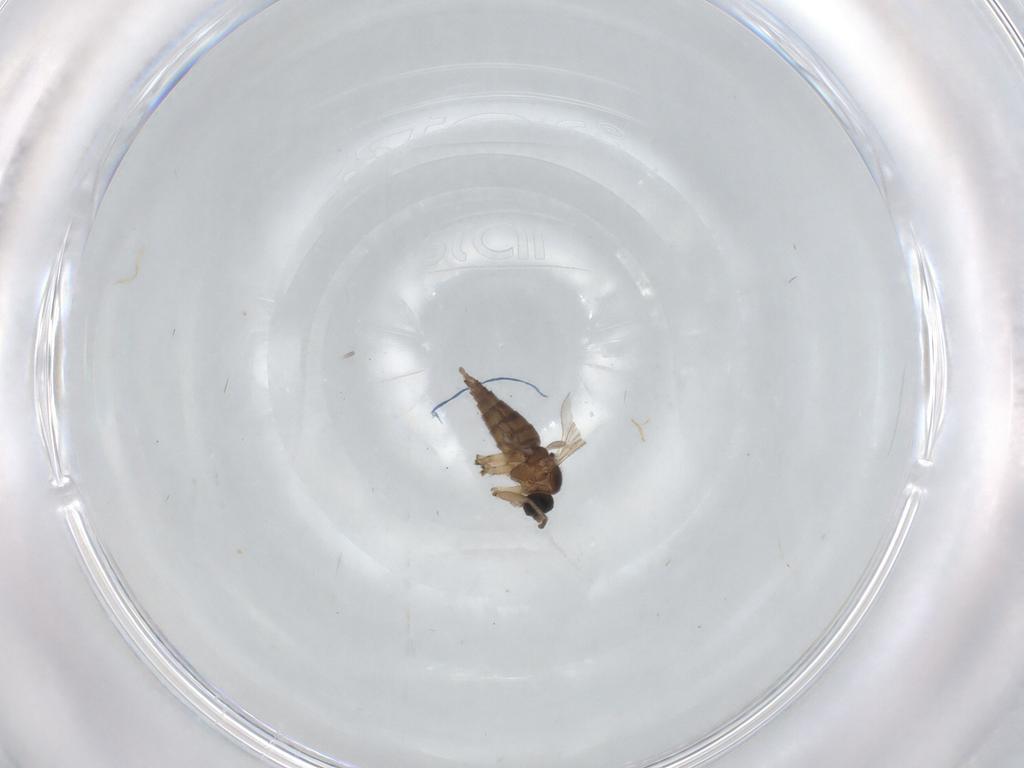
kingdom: Animalia
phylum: Arthropoda
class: Insecta
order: Diptera
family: Sciaridae
